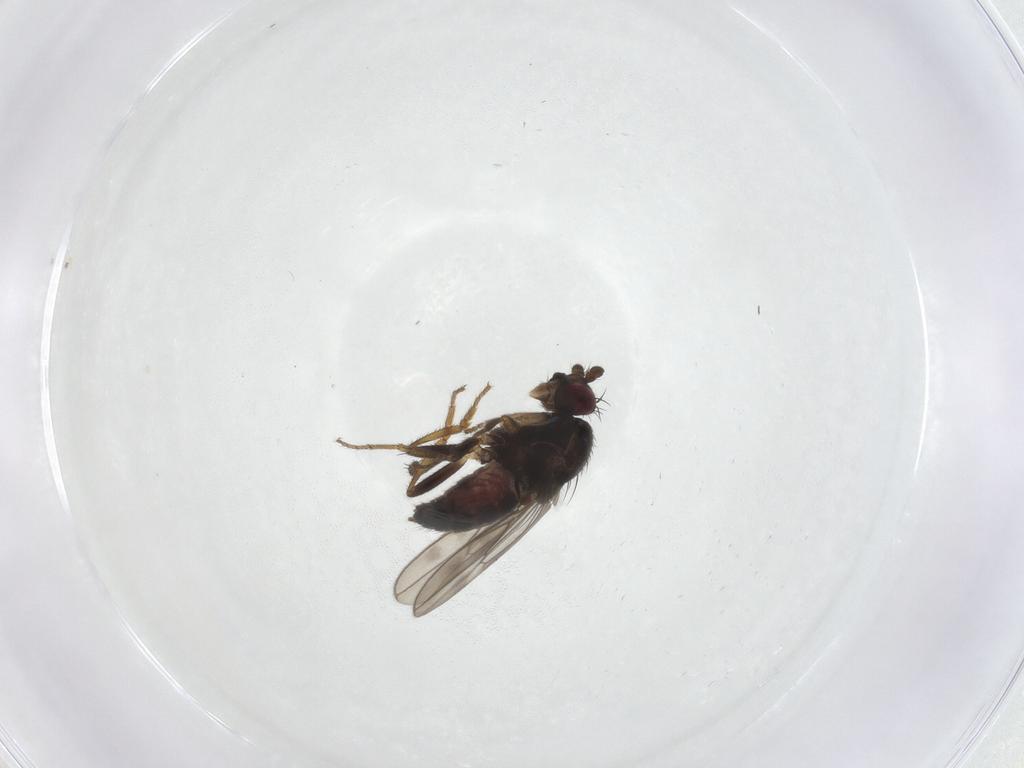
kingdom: Animalia
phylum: Arthropoda
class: Insecta
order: Diptera
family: Sphaeroceridae
